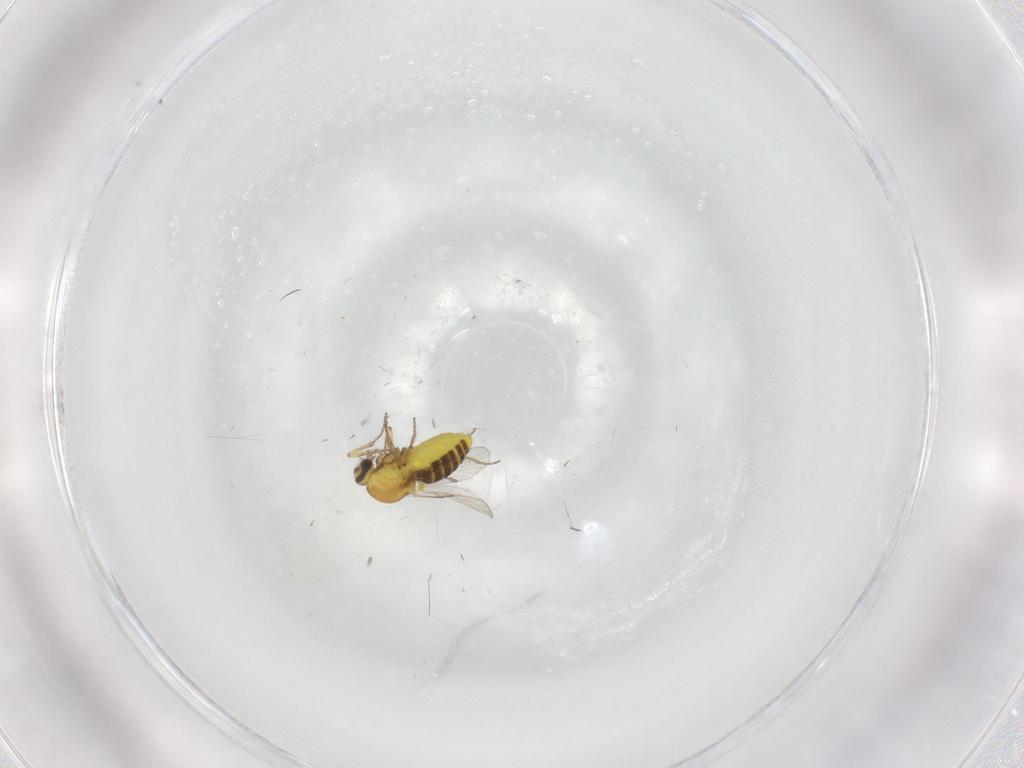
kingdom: Animalia
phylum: Arthropoda
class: Insecta
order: Diptera
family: Ceratopogonidae
